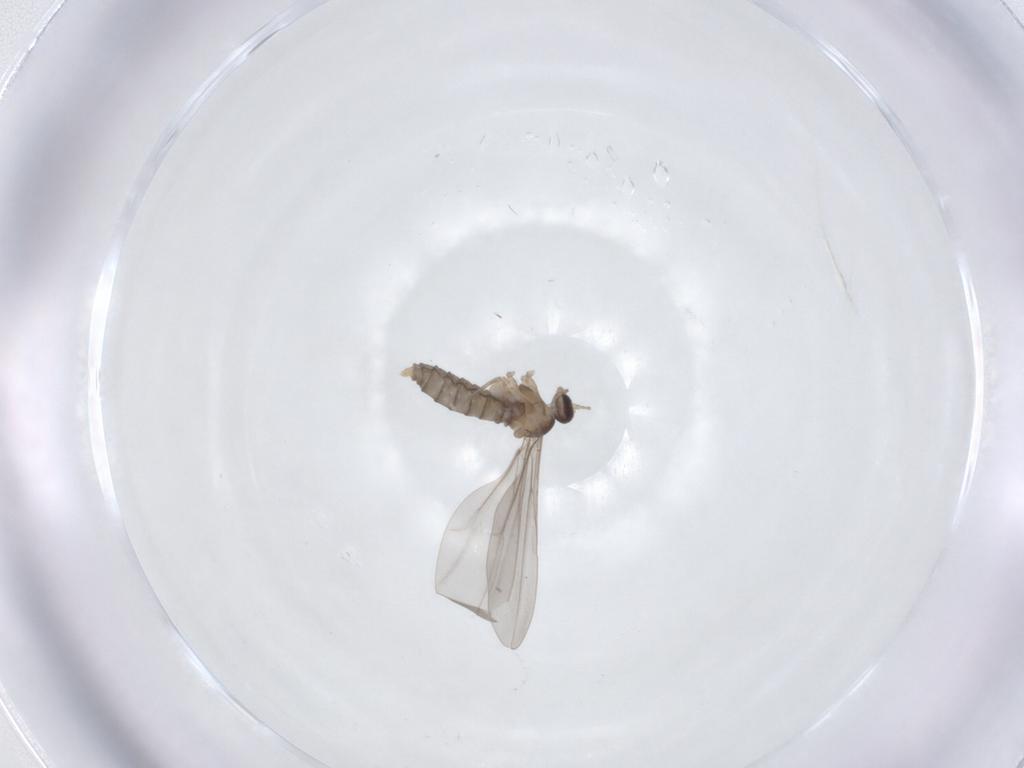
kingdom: Animalia
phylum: Arthropoda
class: Insecta
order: Diptera
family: Cecidomyiidae
